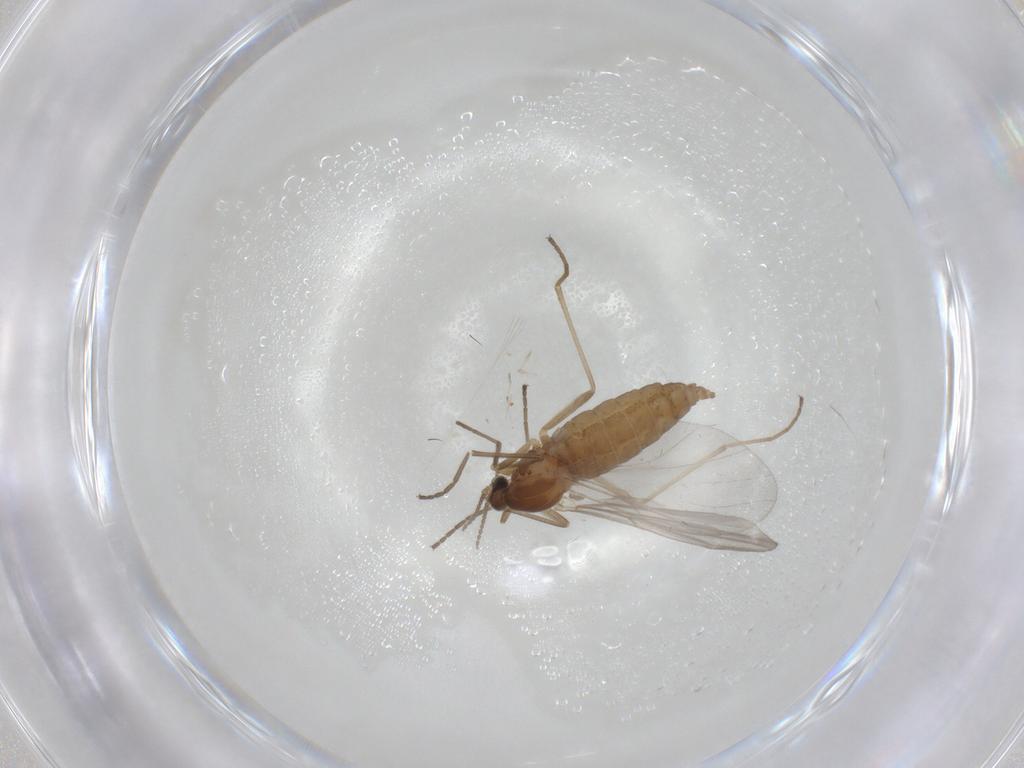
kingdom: Animalia
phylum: Arthropoda
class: Insecta
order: Diptera
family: Cecidomyiidae
